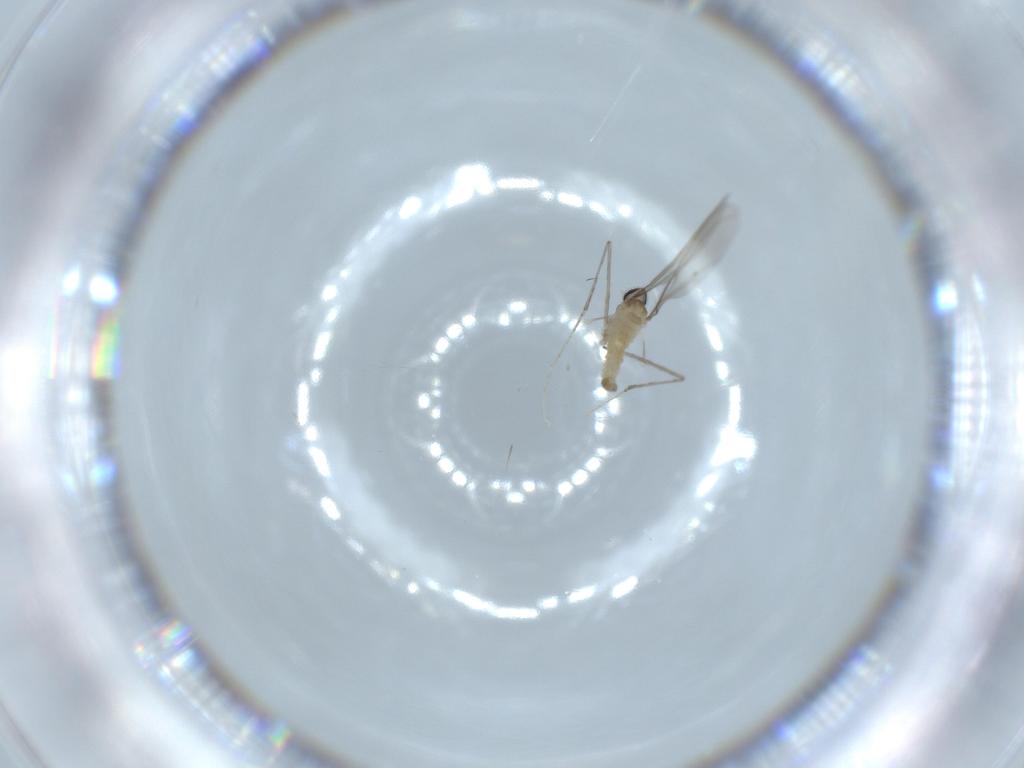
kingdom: Animalia
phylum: Arthropoda
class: Insecta
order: Diptera
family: Cecidomyiidae
